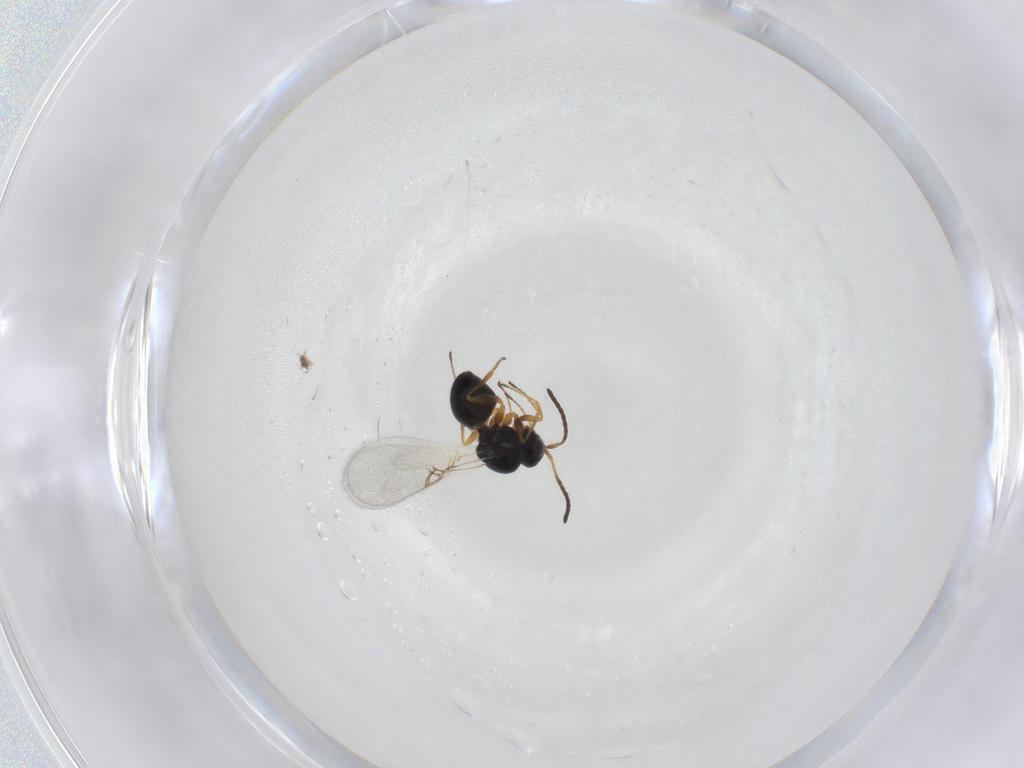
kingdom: Animalia
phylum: Arthropoda
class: Insecta
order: Hymenoptera
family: Figitidae
